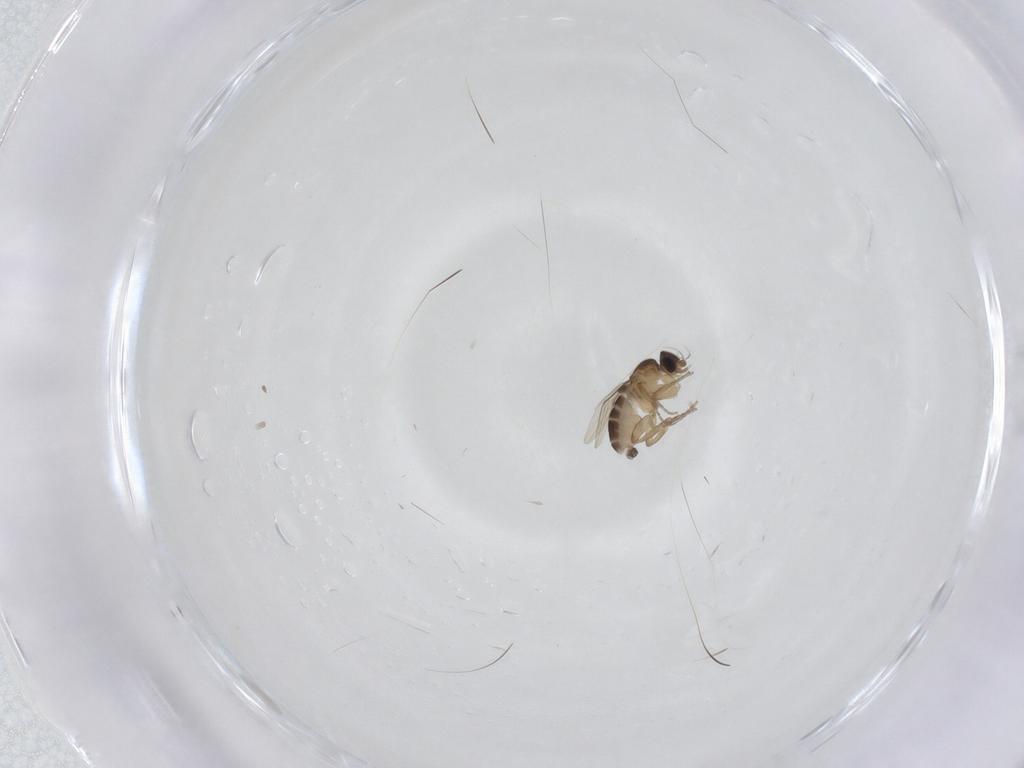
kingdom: Animalia
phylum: Arthropoda
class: Insecta
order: Diptera
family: Phoridae
